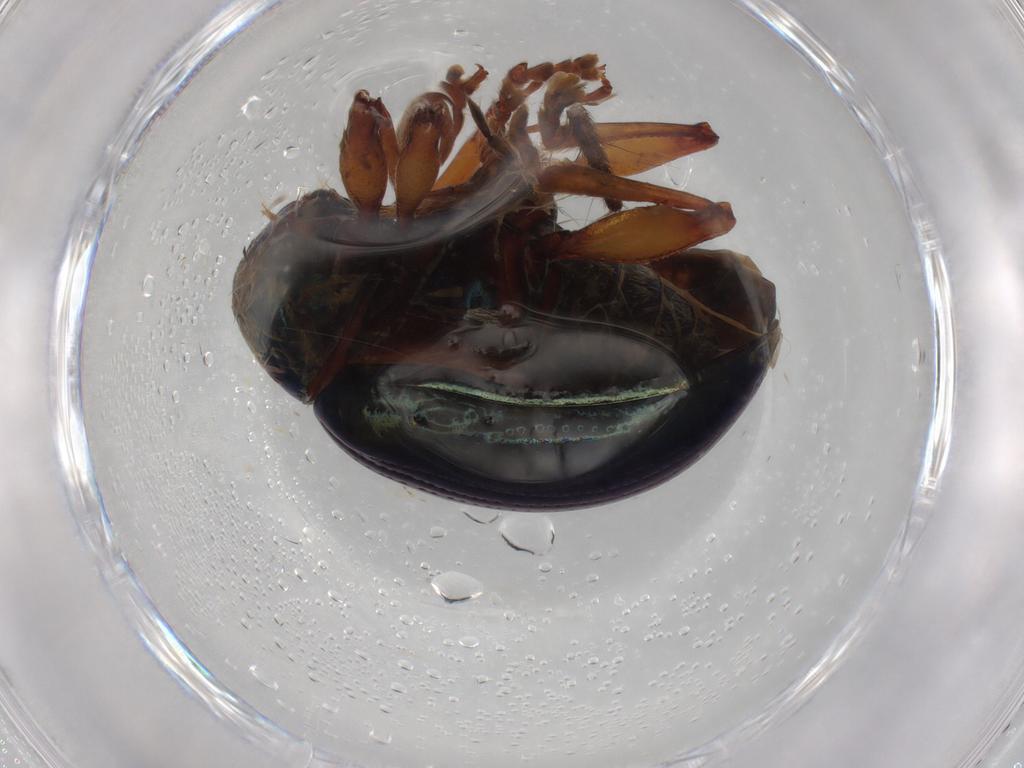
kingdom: Animalia
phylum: Arthropoda
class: Insecta
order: Coleoptera
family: Chrysomelidae
